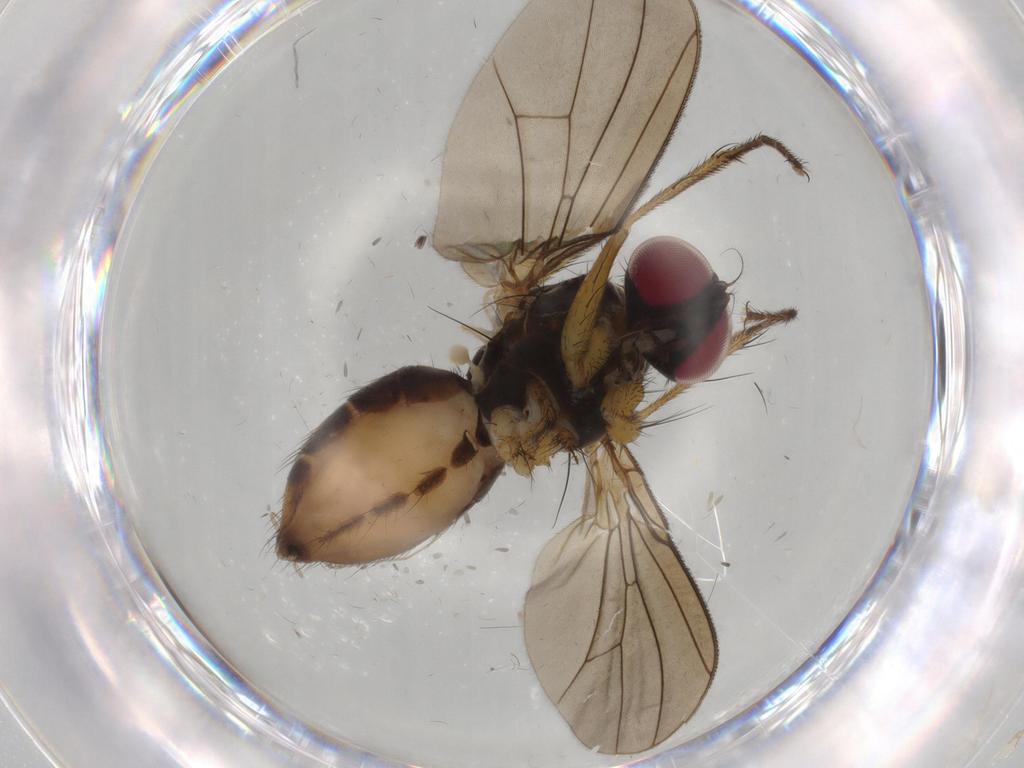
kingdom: Animalia
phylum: Arthropoda
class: Insecta
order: Diptera
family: Anthomyiidae
